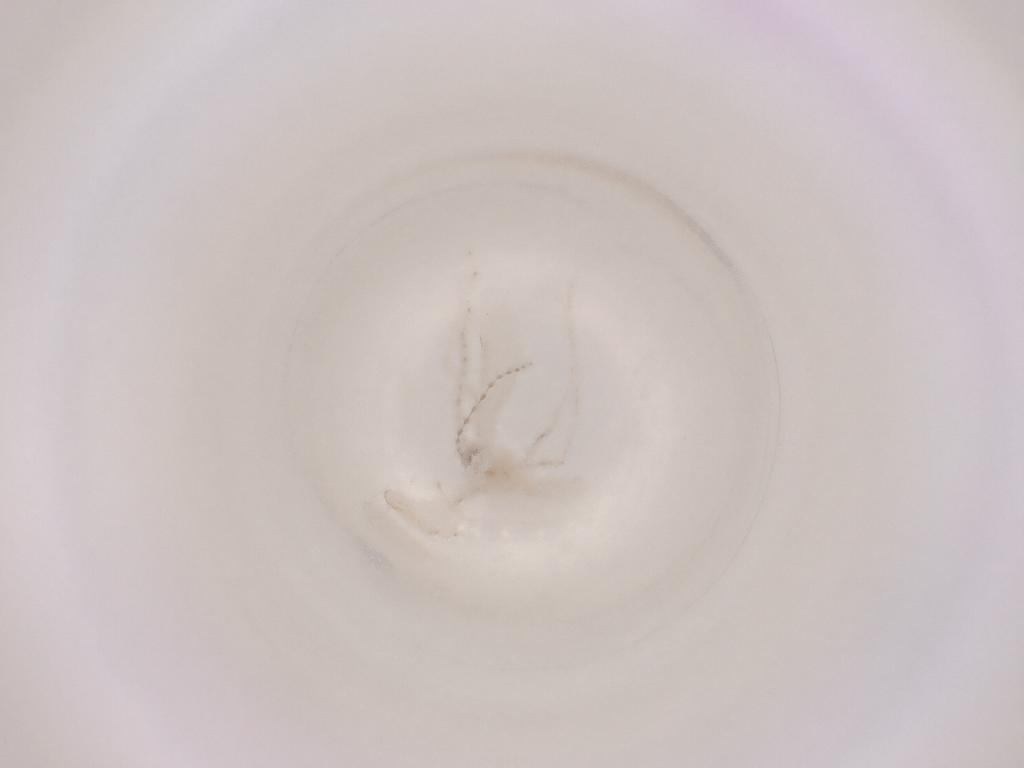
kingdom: Animalia
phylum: Arthropoda
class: Insecta
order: Diptera
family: Cecidomyiidae
